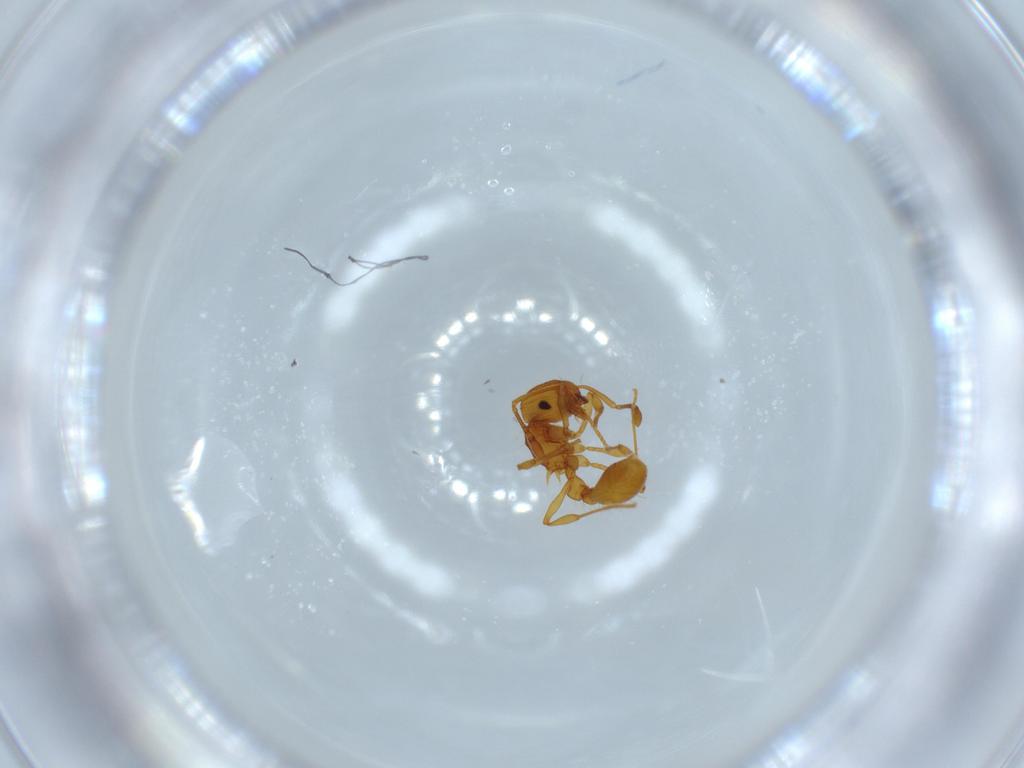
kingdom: Animalia
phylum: Arthropoda
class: Insecta
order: Hymenoptera
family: Formicidae
